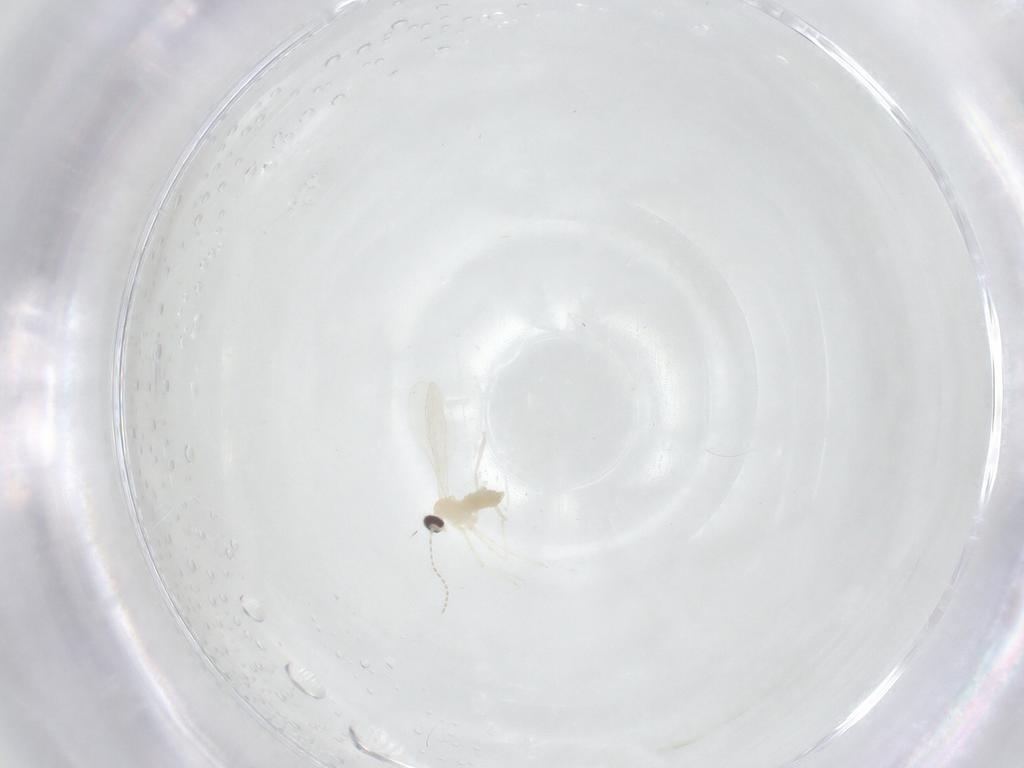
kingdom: Animalia
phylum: Arthropoda
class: Insecta
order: Diptera
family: Cecidomyiidae
